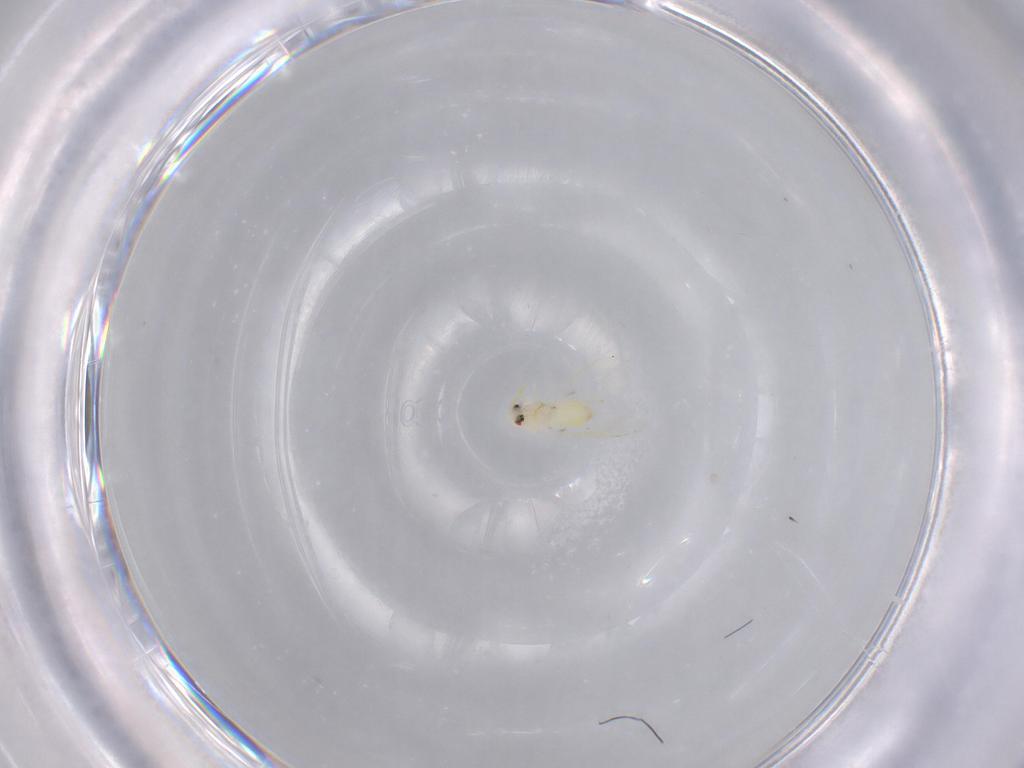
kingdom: Animalia
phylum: Arthropoda
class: Insecta
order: Hemiptera
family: Aleyrodidae
